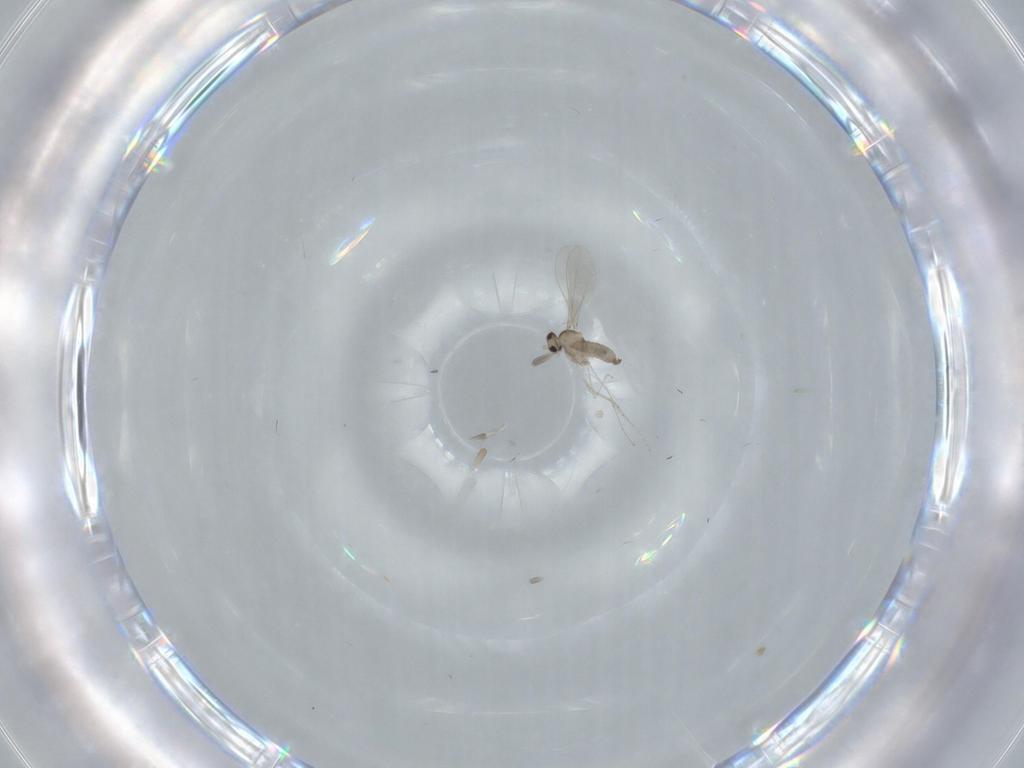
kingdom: Animalia
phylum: Arthropoda
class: Insecta
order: Diptera
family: Cecidomyiidae
